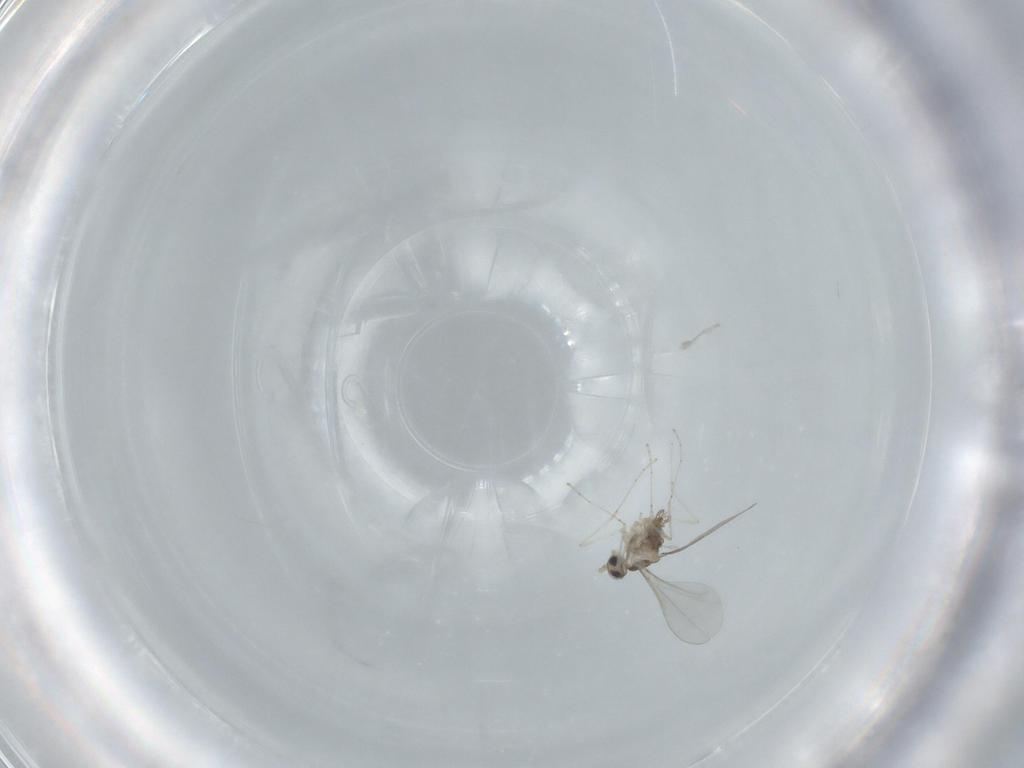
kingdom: Animalia
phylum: Arthropoda
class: Insecta
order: Diptera
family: Cecidomyiidae
